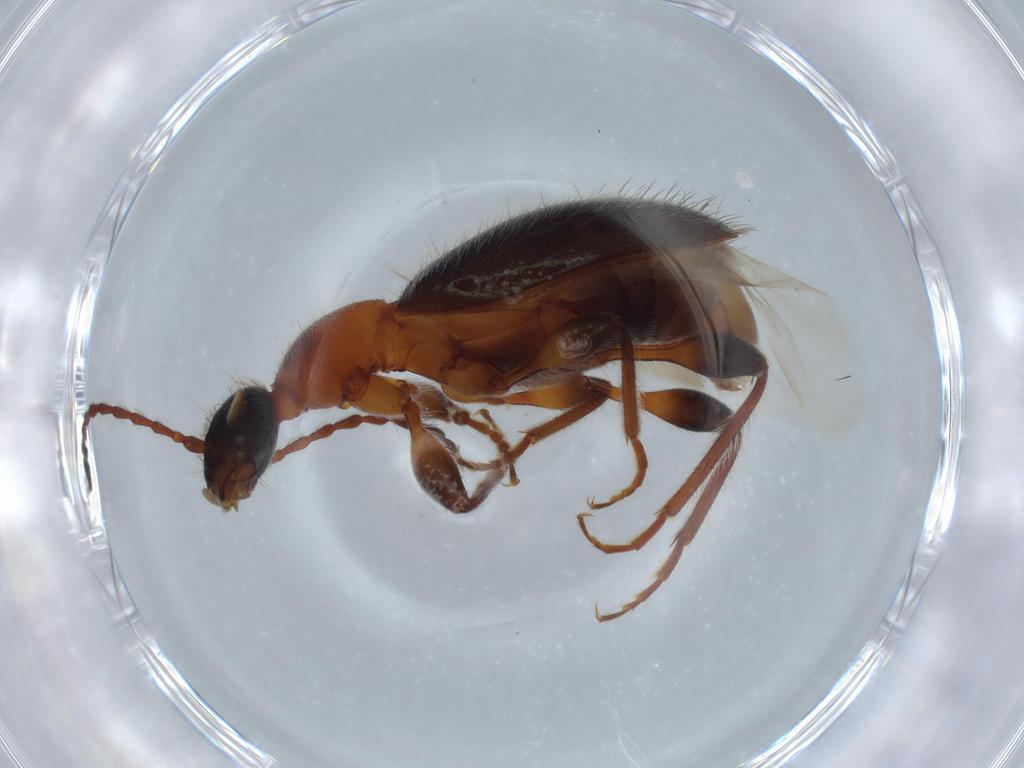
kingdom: Animalia
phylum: Arthropoda
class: Insecta
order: Coleoptera
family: Anthicidae
